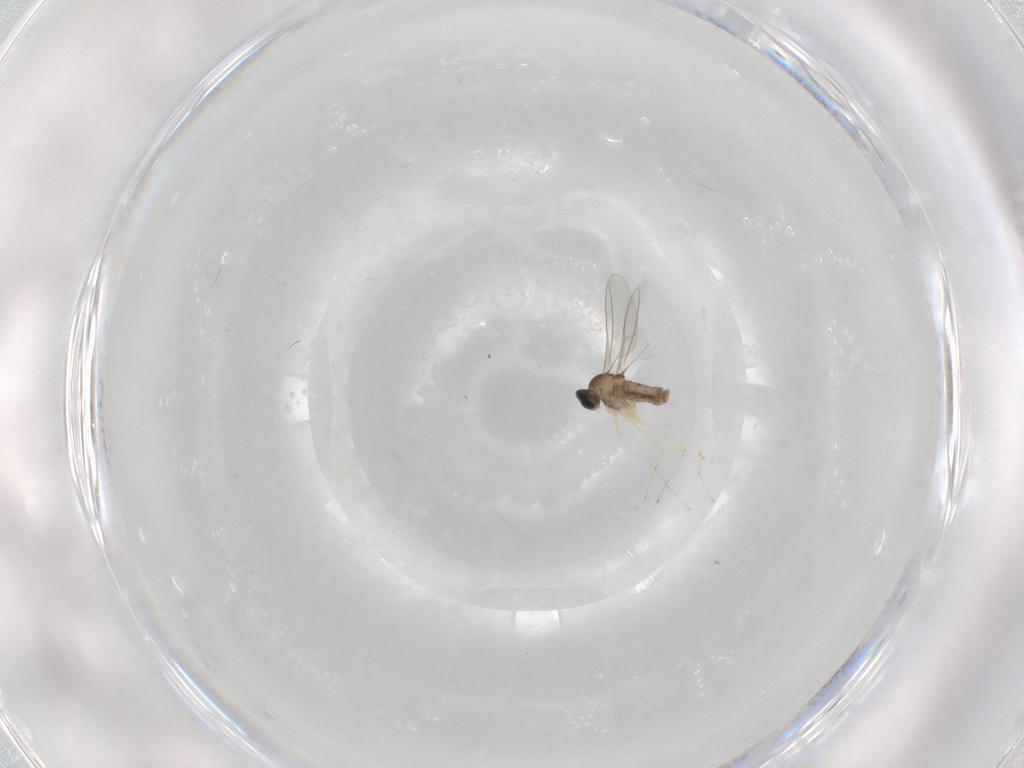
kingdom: Animalia
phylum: Arthropoda
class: Insecta
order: Diptera
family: Cecidomyiidae
